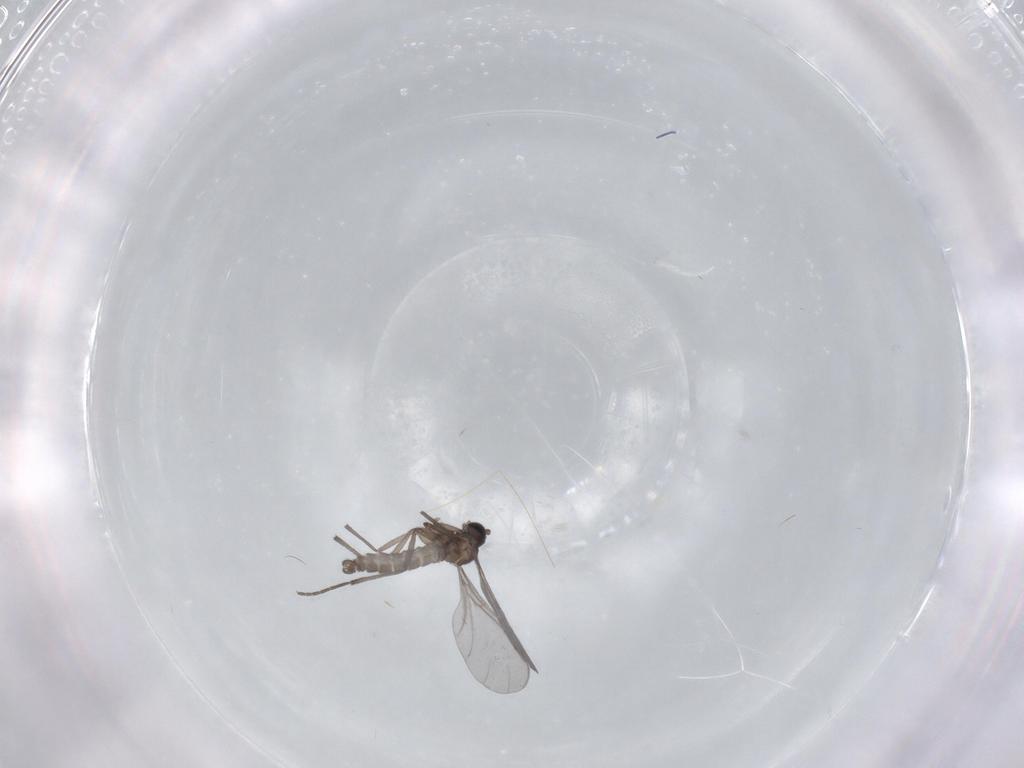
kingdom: Animalia
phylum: Arthropoda
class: Insecta
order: Diptera
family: Sciaridae
